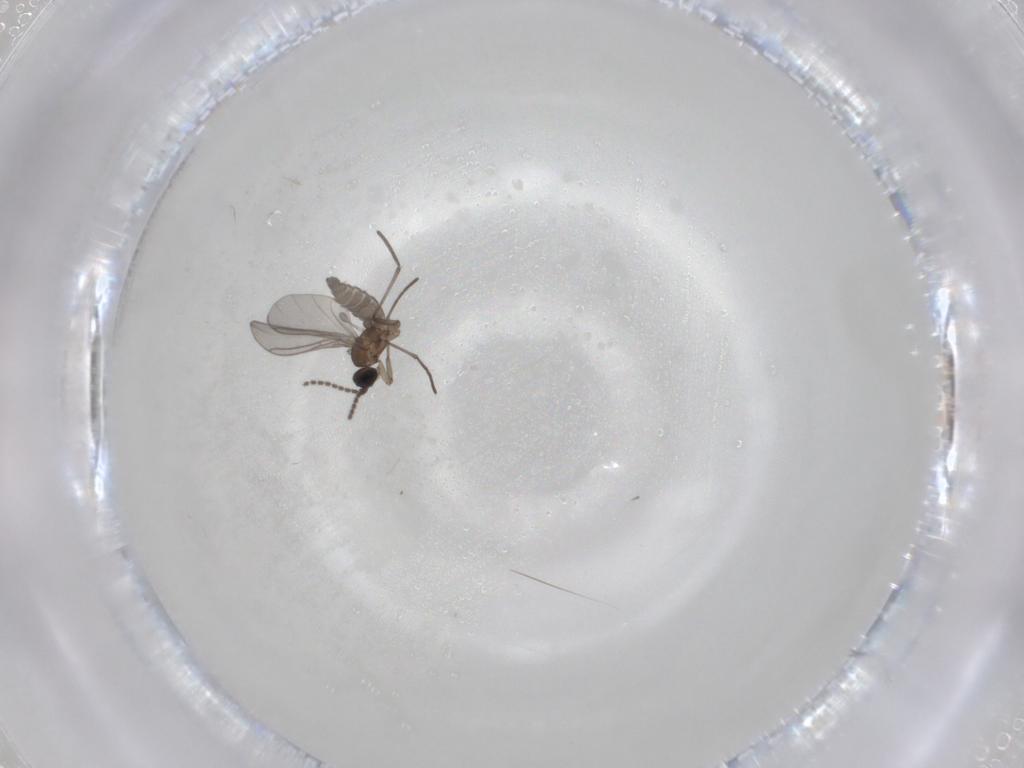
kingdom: Animalia
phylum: Arthropoda
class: Insecta
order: Diptera
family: Sciaridae
